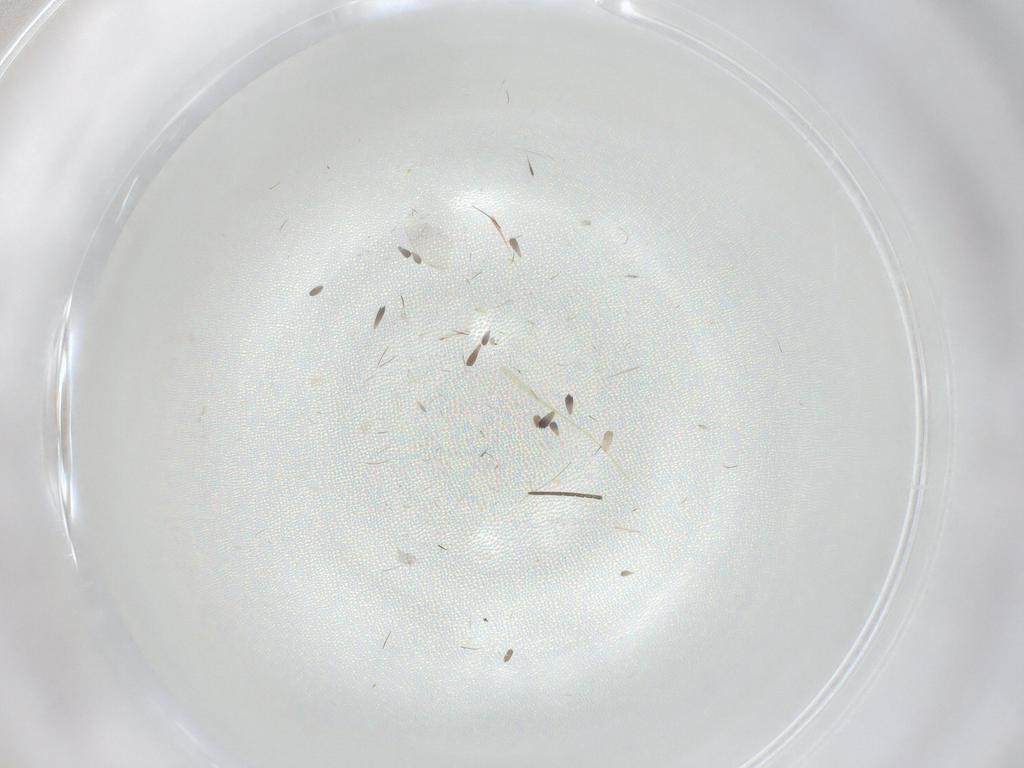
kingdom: Animalia
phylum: Arthropoda
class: Insecta
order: Diptera
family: Sciaridae
